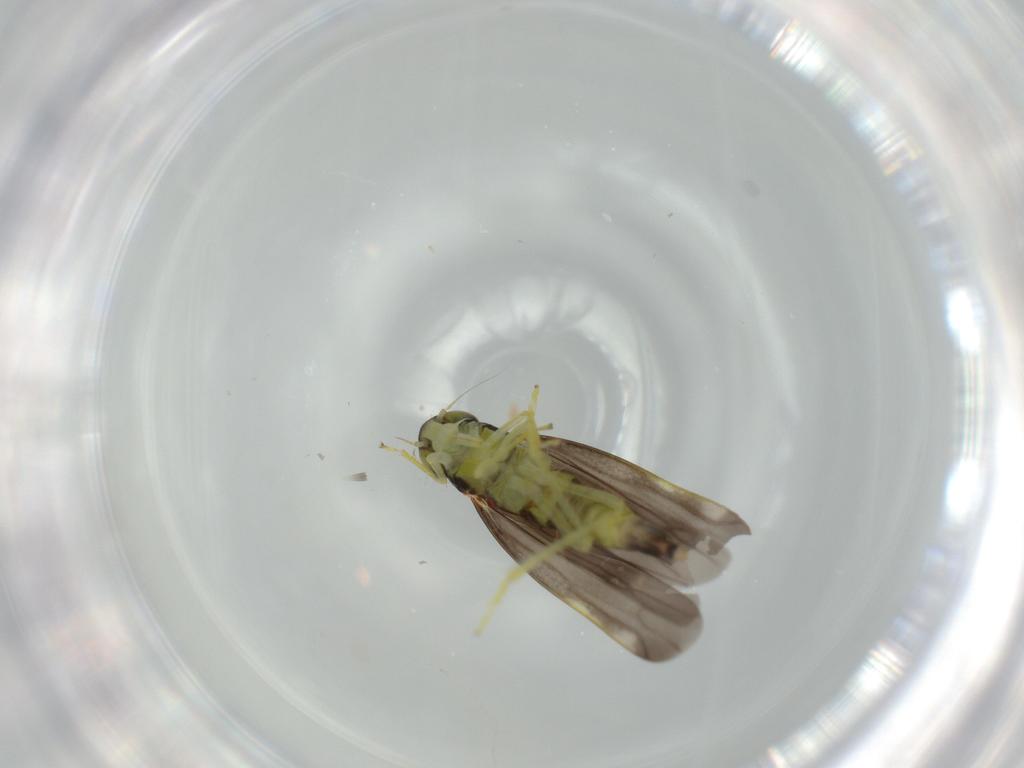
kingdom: Animalia
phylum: Arthropoda
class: Insecta
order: Hemiptera
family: Cicadellidae
